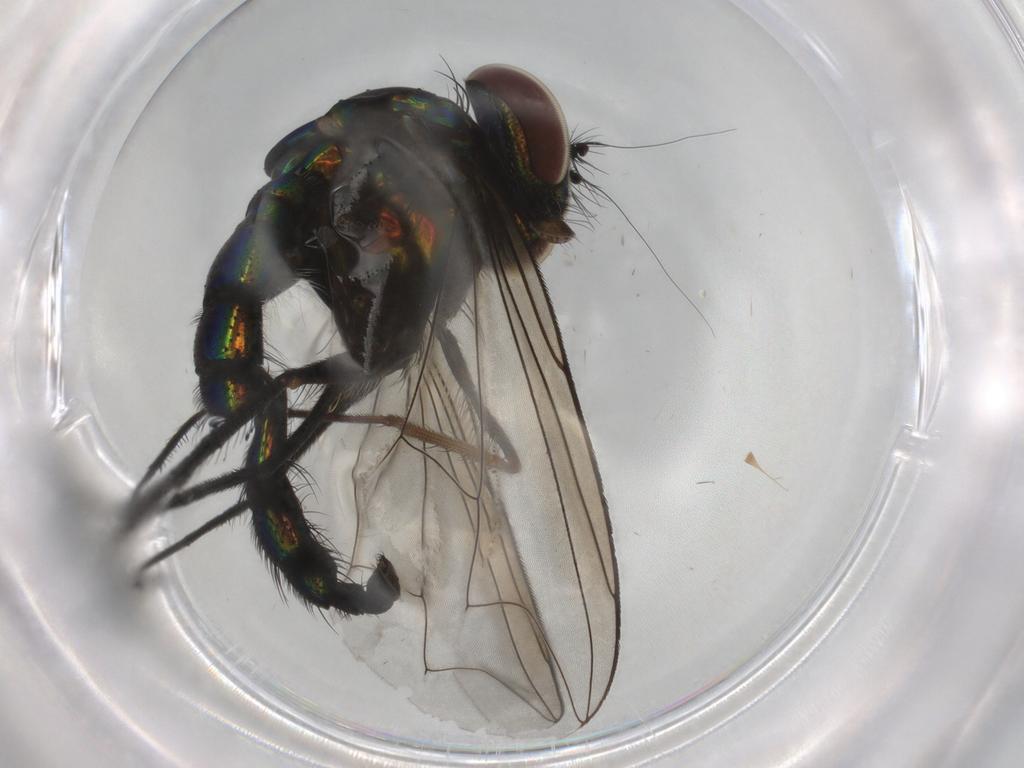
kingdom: Animalia
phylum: Arthropoda
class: Insecta
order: Diptera
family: Dolichopodidae
